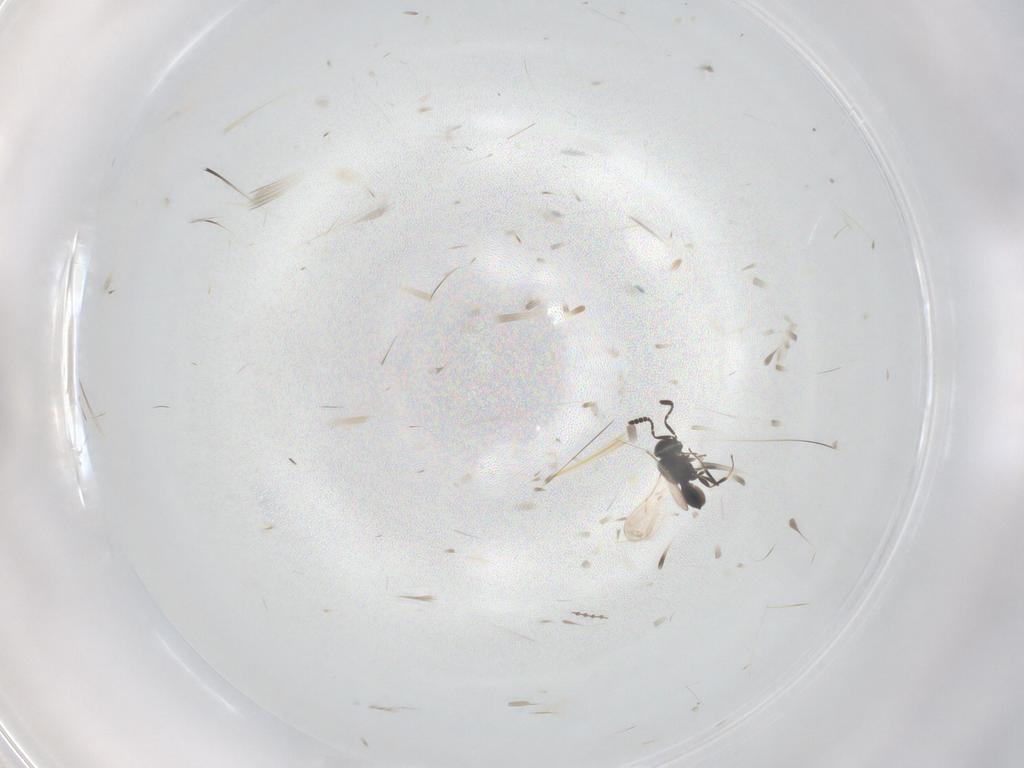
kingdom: Animalia
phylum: Arthropoda
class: Insecta
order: Hymenoptera
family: Scelionidae
